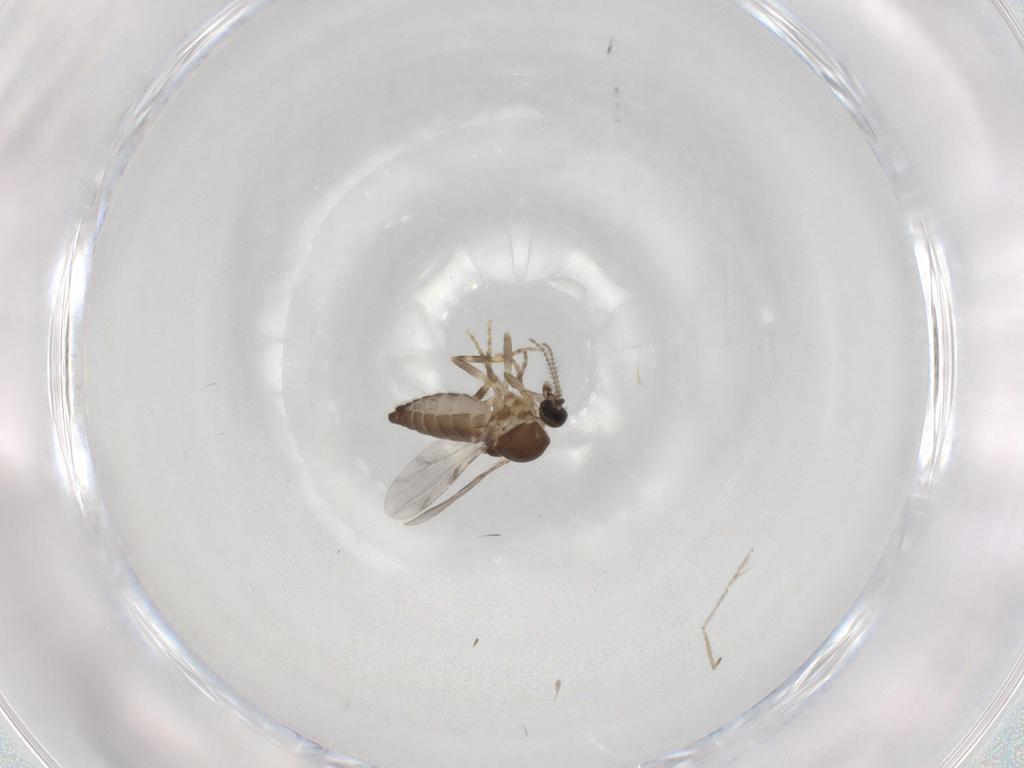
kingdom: Animalia
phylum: Arthropoda
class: Insecta
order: Diptera
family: Ceratopogonidae
